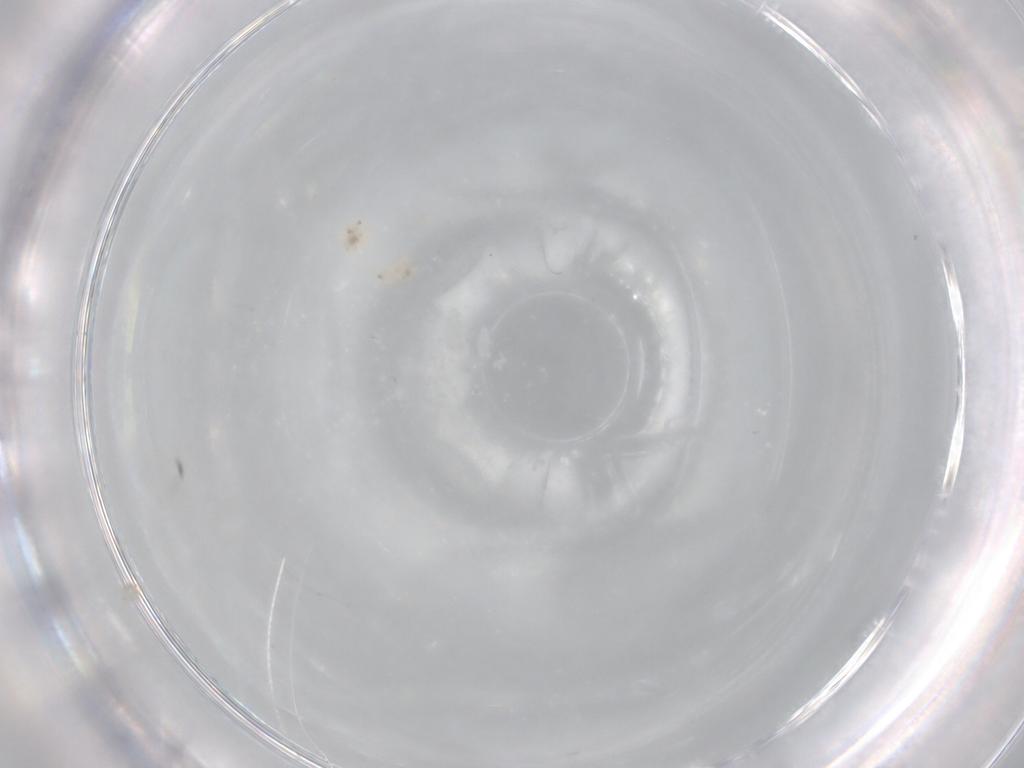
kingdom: Animalia
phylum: Arthropoda
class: Collembola
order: Entomobryomorpha
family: Entomobryidae
